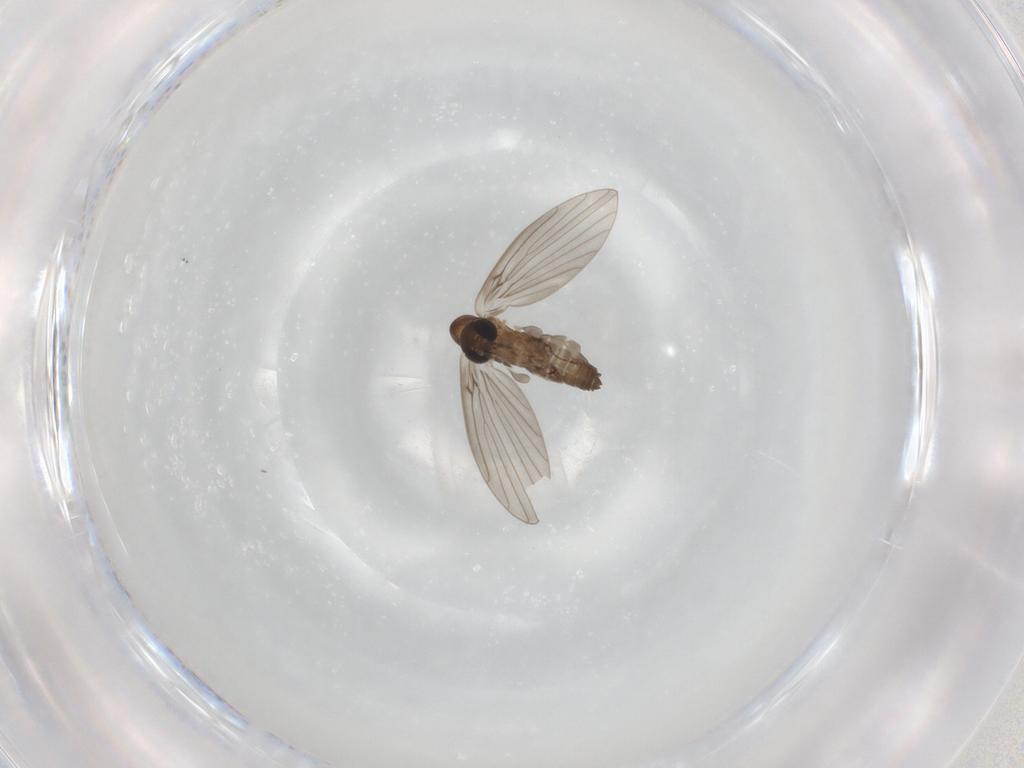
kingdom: Animalia
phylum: Arthropoda
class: Insecta
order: Diptera
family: Psychodidae
